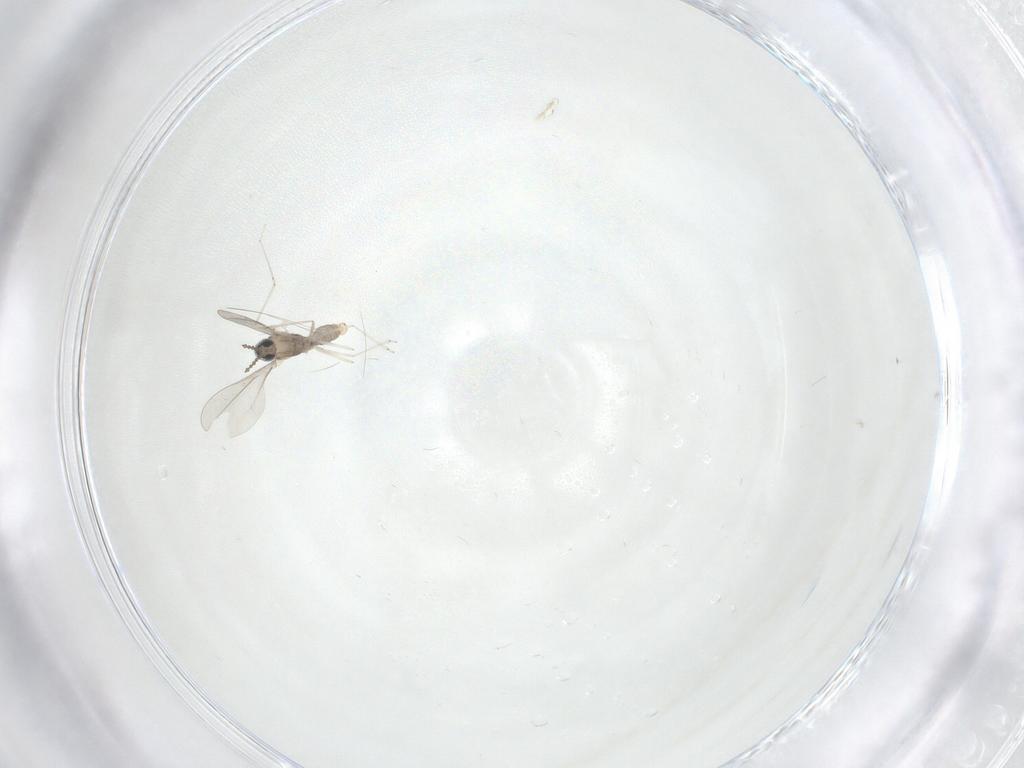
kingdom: Animalia
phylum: Arthropoda
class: Insecta
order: Diptera
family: Cecidomyiidae
